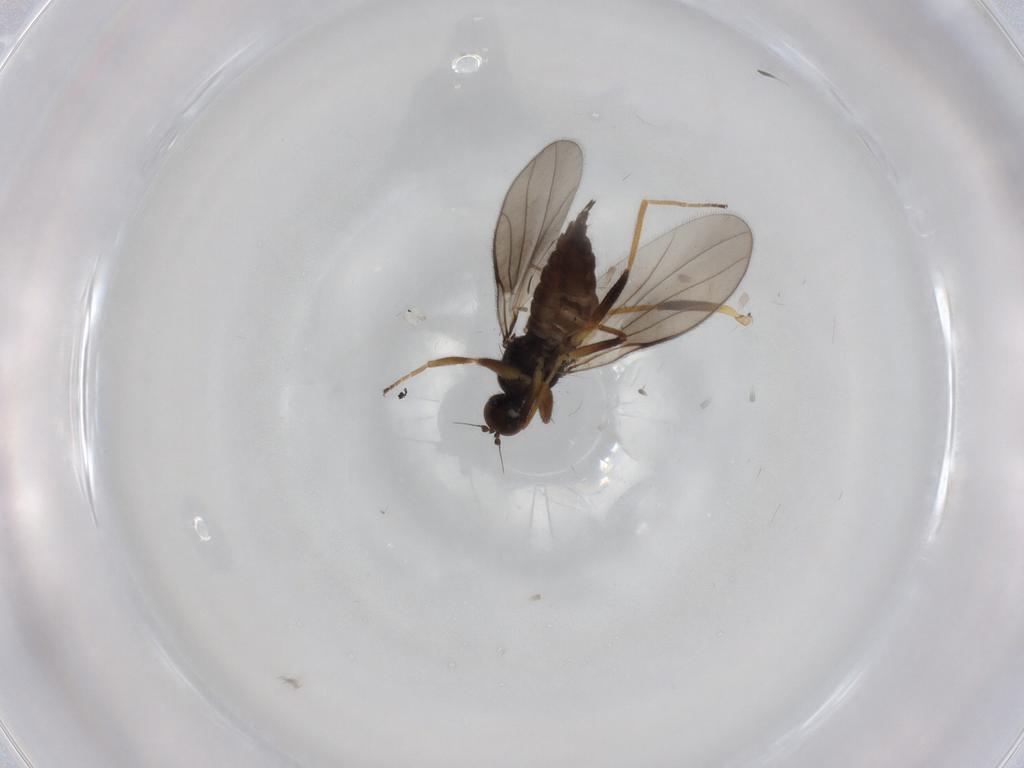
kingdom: Animalia
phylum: Arthropoda
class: Insecta
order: Diptera
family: Hybotidae
